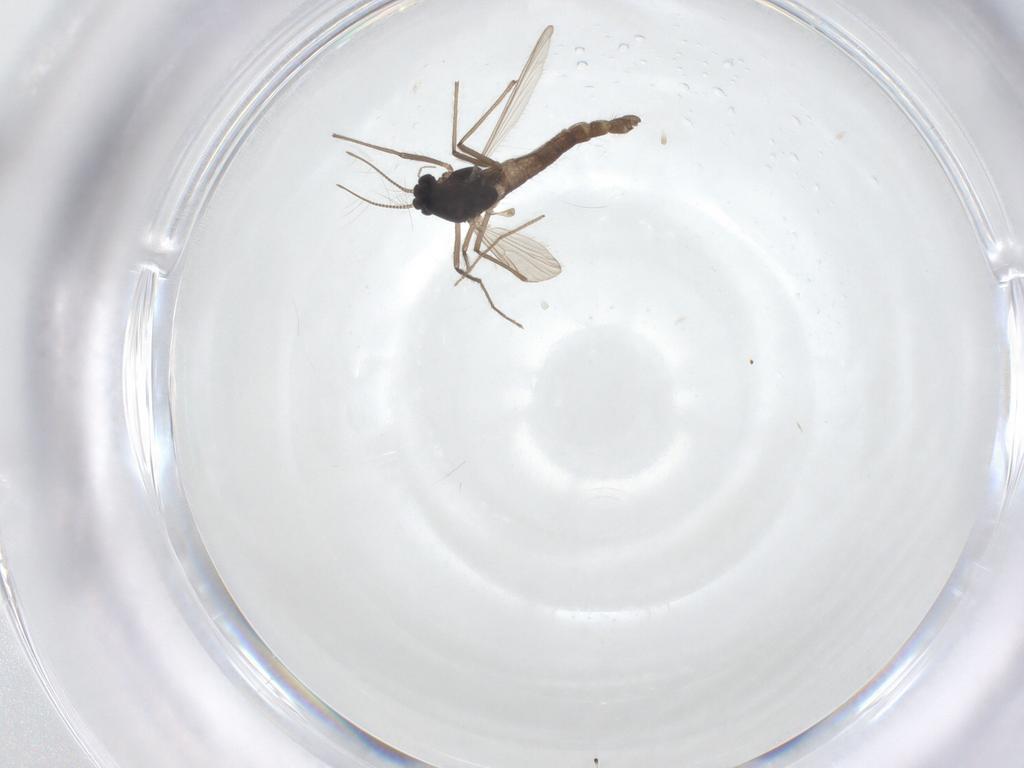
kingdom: Animalia
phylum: Arthropoda
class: Insecta
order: Diptera
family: Chironomidae
